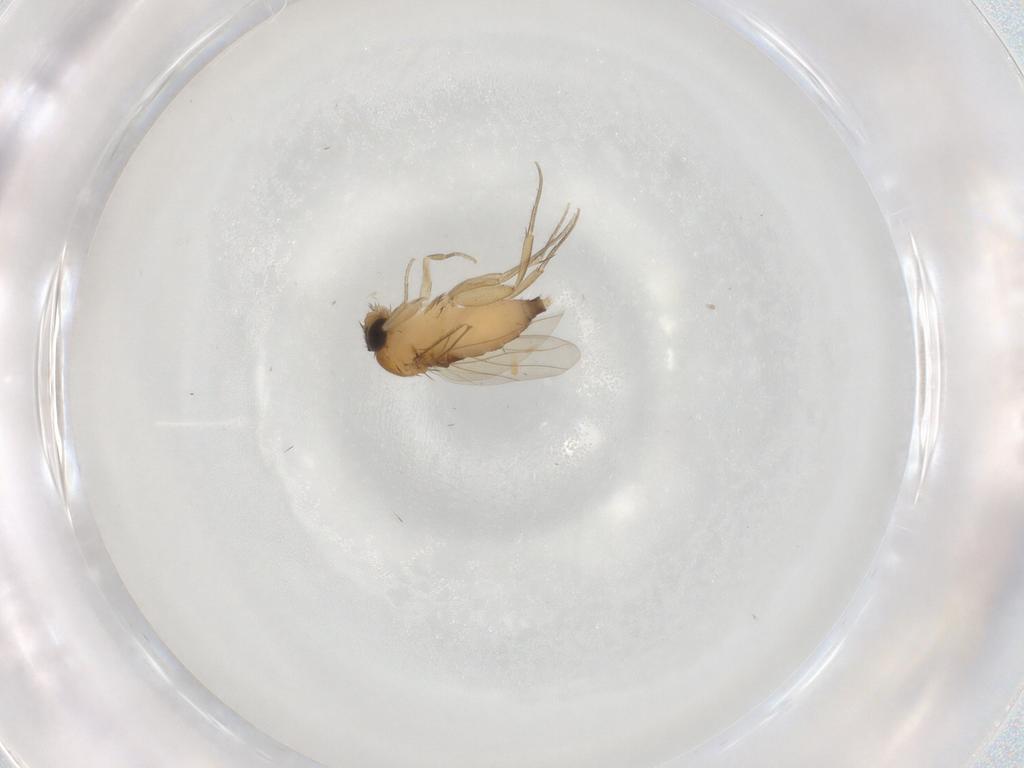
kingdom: Animalia
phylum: Arthropoda
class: Insecta
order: Diptera
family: Phoridae
